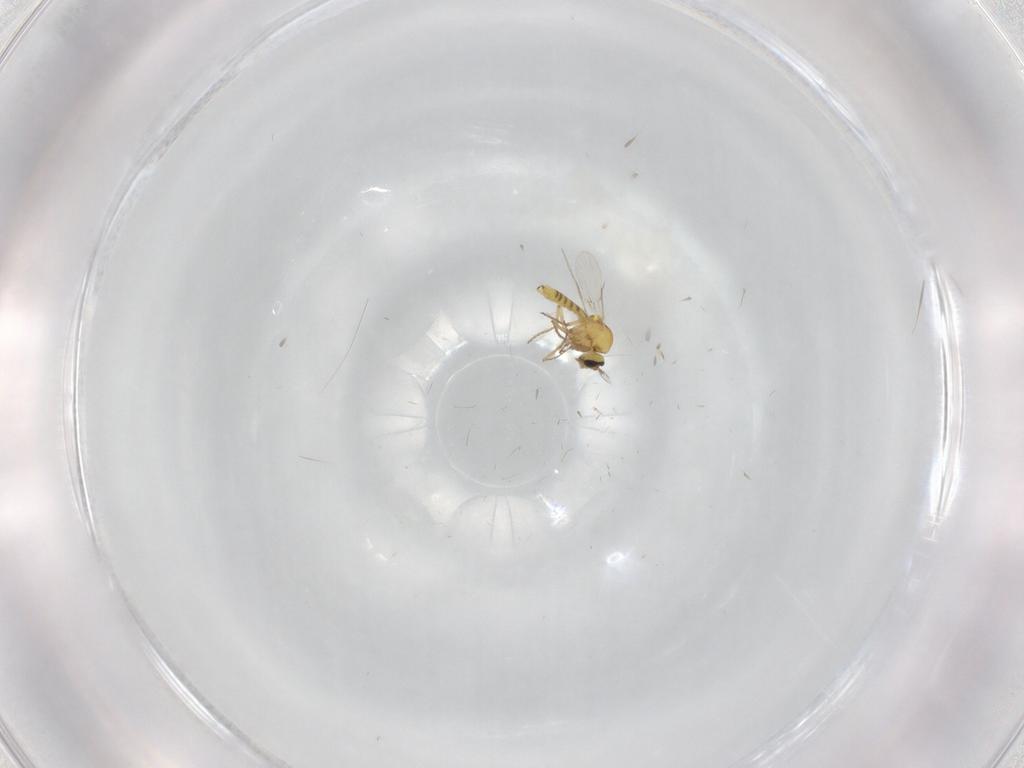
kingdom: Animalia
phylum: Arthropoda
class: Insecta
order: Diptera
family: Ceratopogonidae
